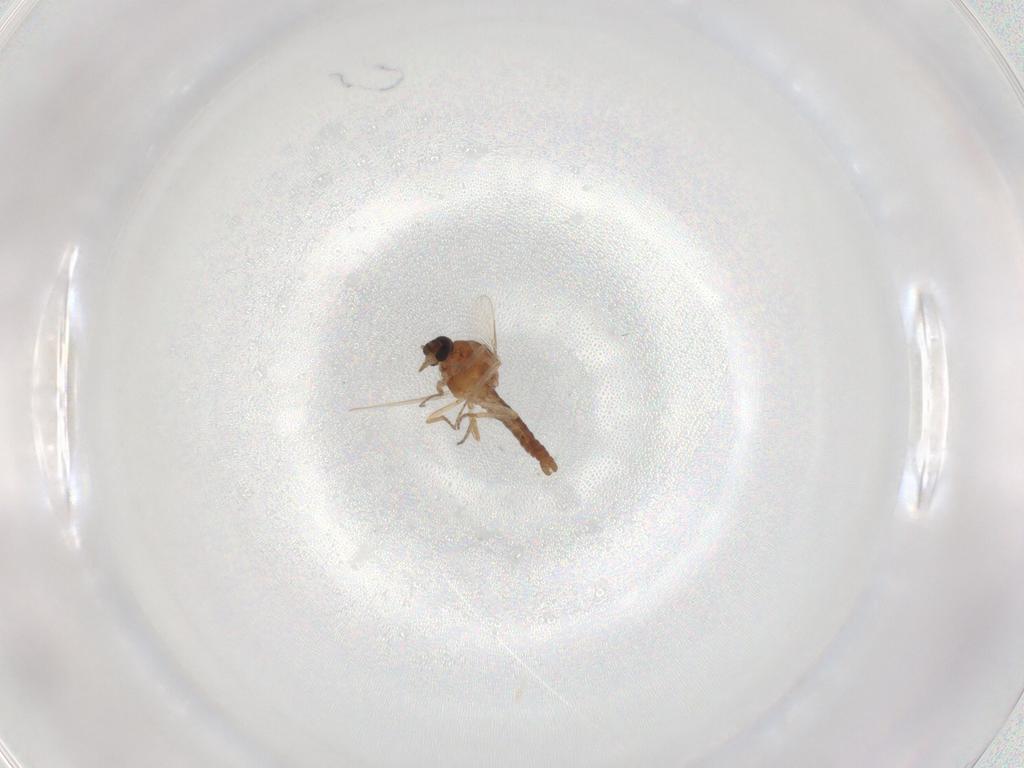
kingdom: Animalia
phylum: Arthropoda
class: Insecta
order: Diptera
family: Ceratopogonidae
